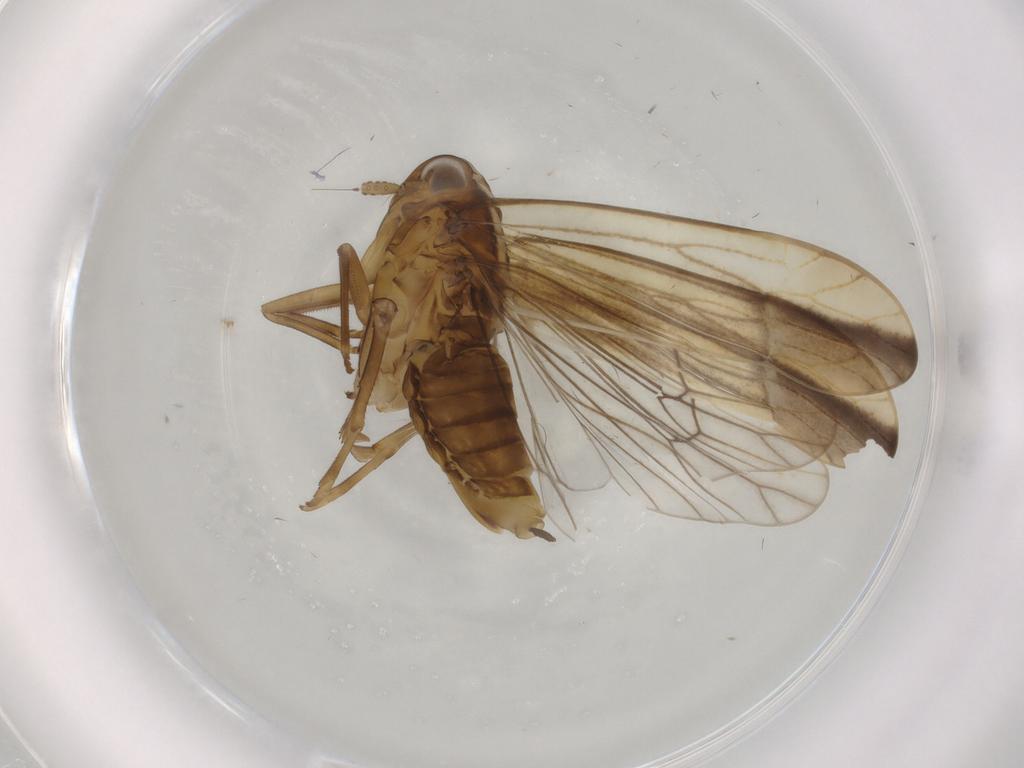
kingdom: Animalia
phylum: Arthropoda
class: Insecta
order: Hemiptera
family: Delphacidae
